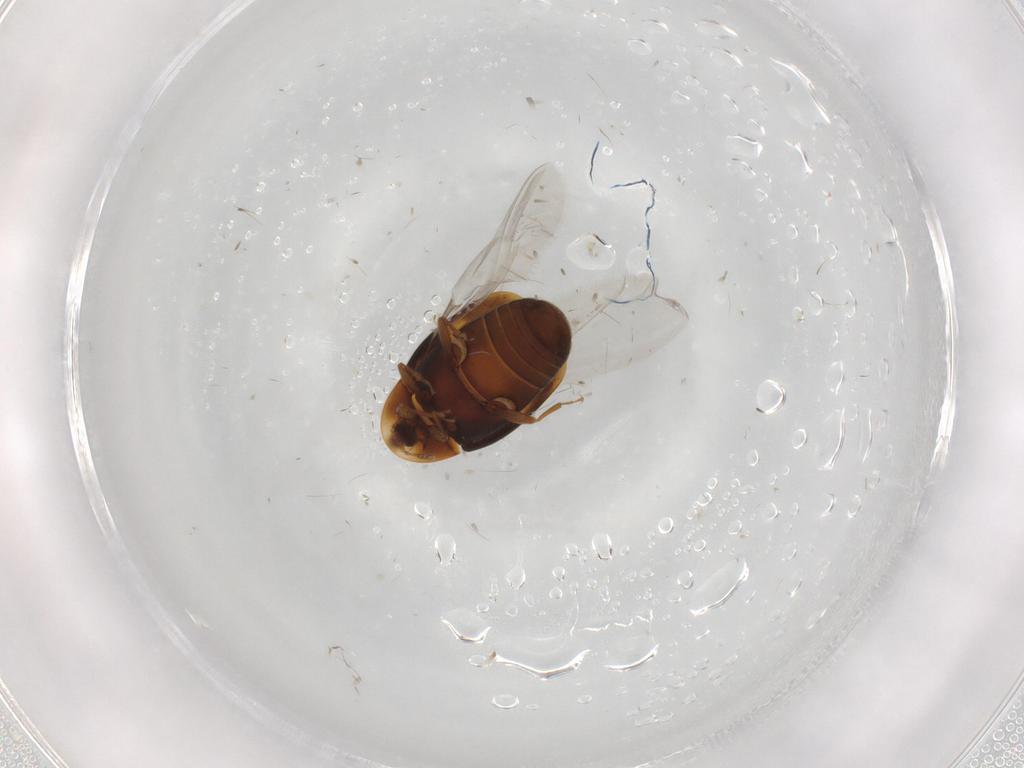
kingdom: Animalia
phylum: Arthropoda
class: Insecta
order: Coleoptera
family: Corylophidae
